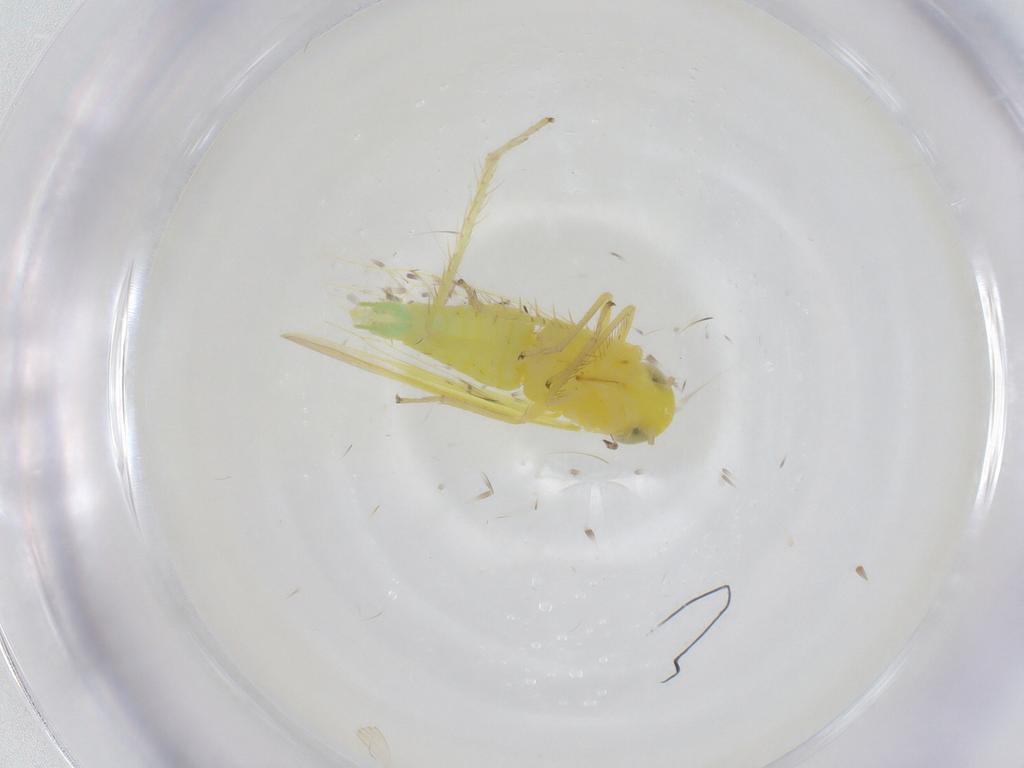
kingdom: Animalia
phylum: Arthropoda
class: Insecta
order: Hemiptera
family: Cicadellidae
